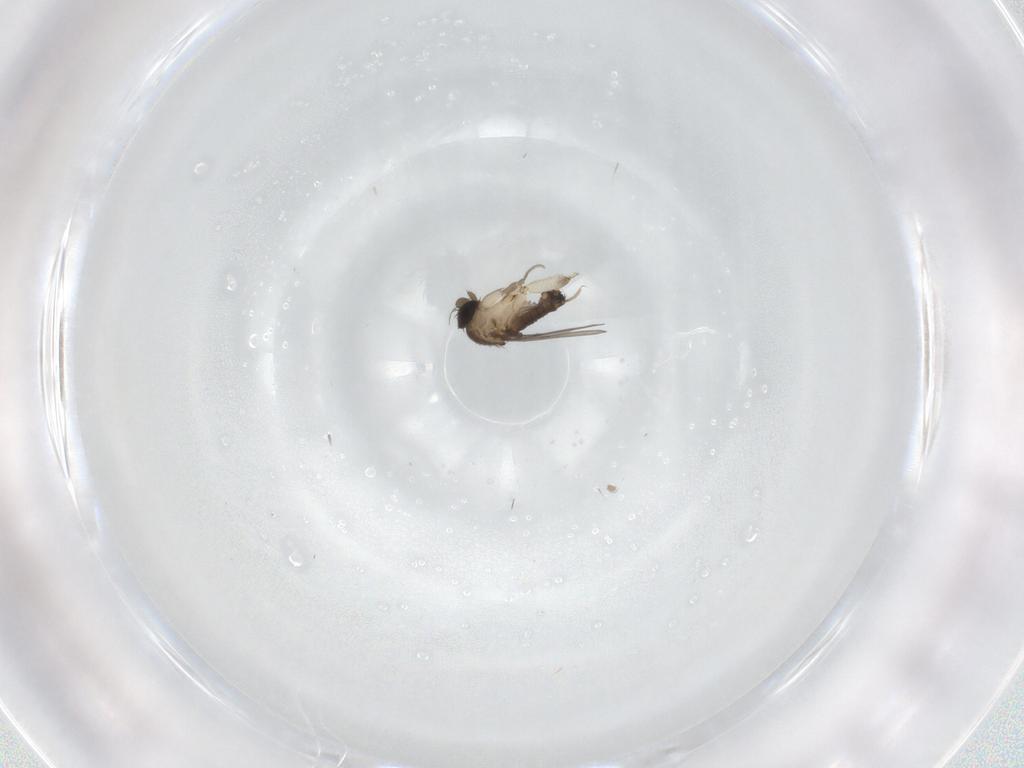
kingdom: Animalia
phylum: Arthropoda
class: Insecta
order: Diptera
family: Phoridae
